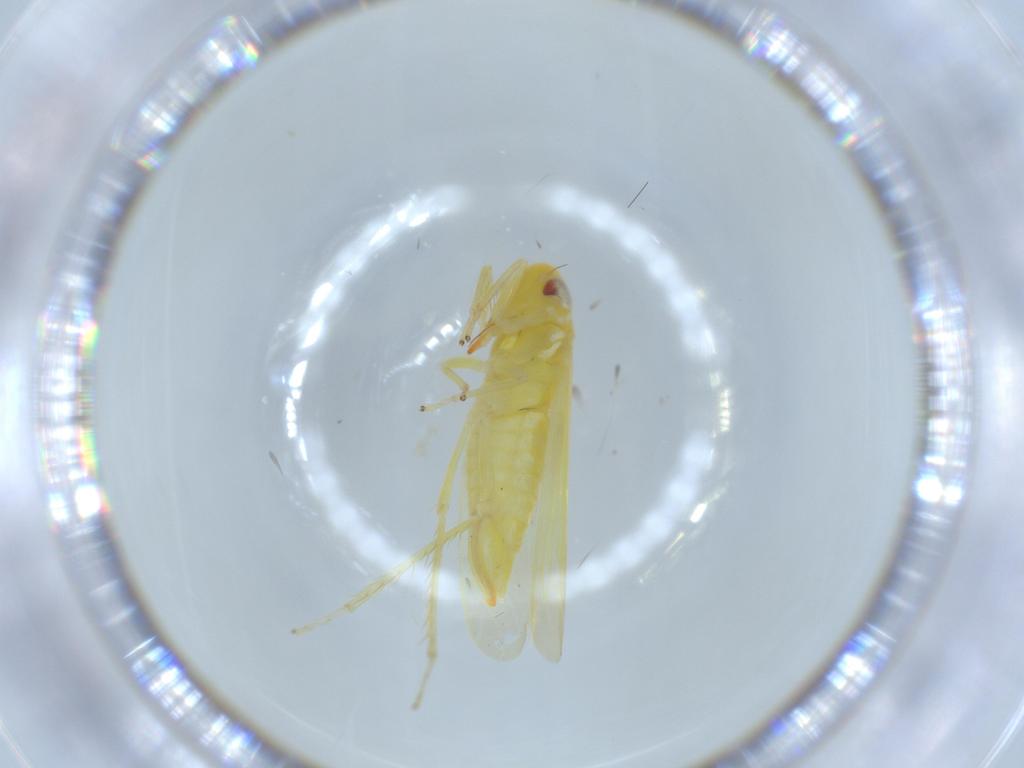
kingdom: Animalia
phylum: Arthropoda
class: Insecta
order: Hemiptera
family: Cicadellidae
